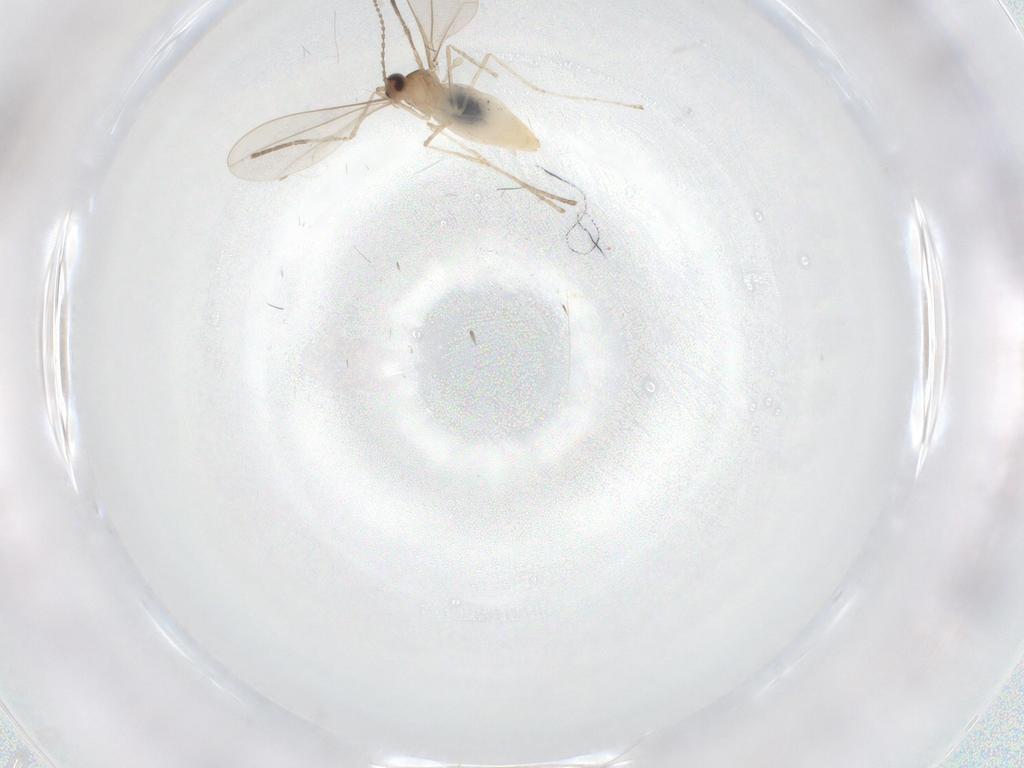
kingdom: Animalia
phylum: Arthropoda
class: Insecta
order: Diptera
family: Cecidomyiidae
